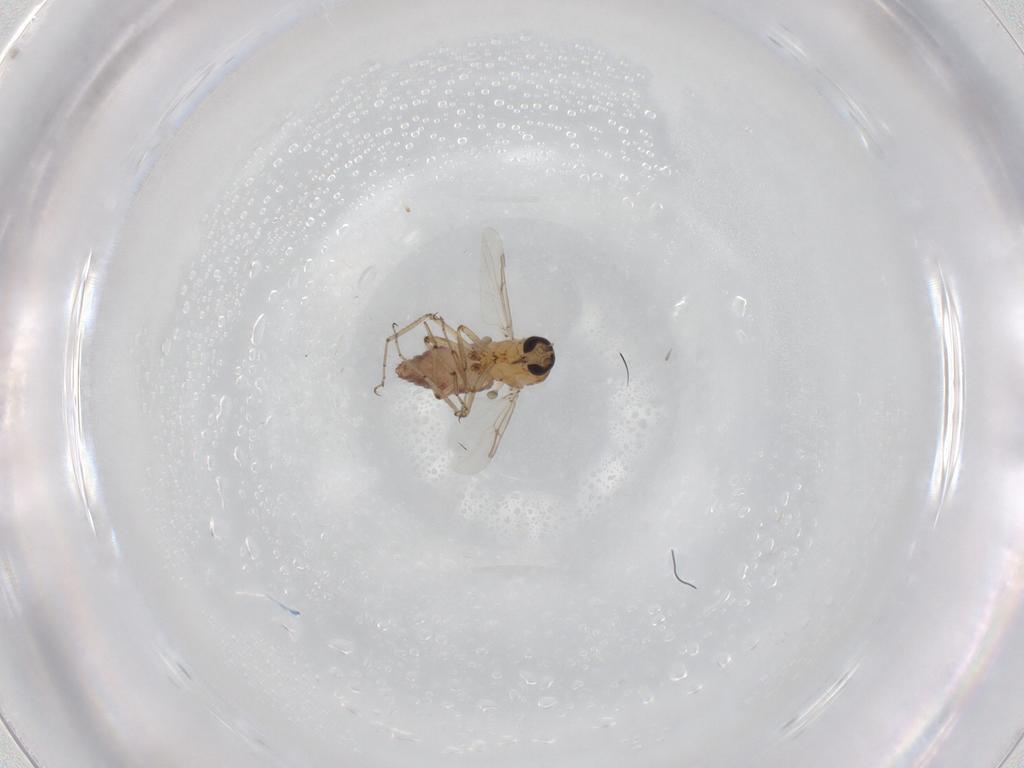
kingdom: Animalia
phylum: Arthropoda
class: Insecta
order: Diptera
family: Ceratopogonidae
